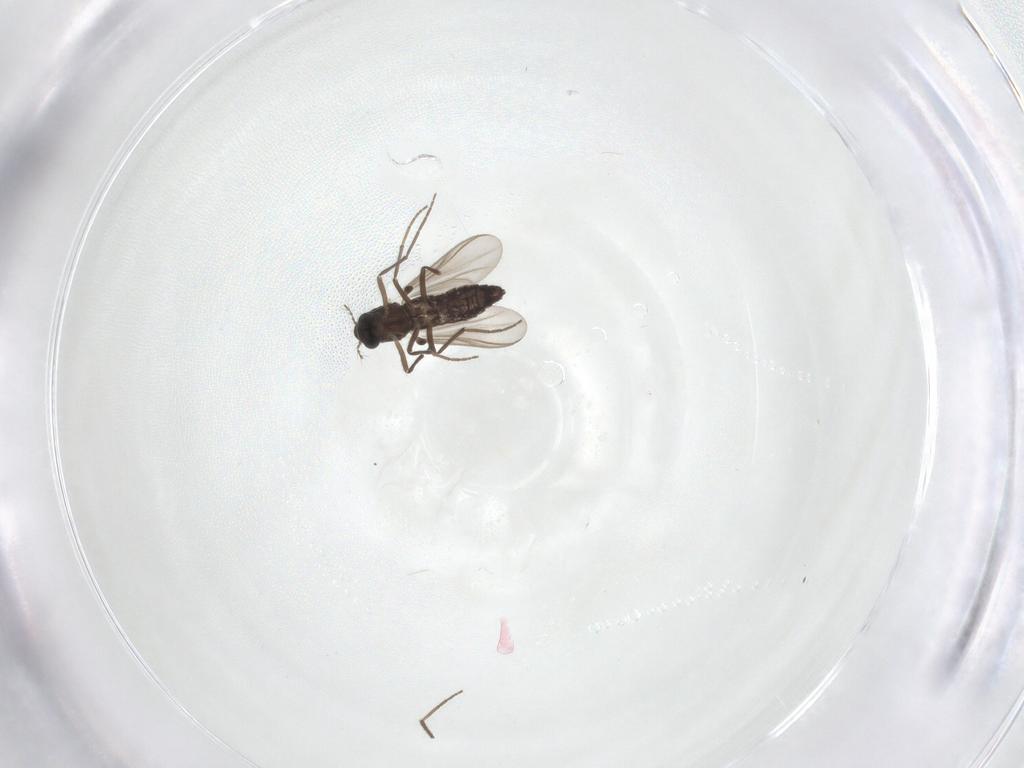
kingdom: Animalia
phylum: Arthropoda
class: Insecta
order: Diptera
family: Chironomidae
